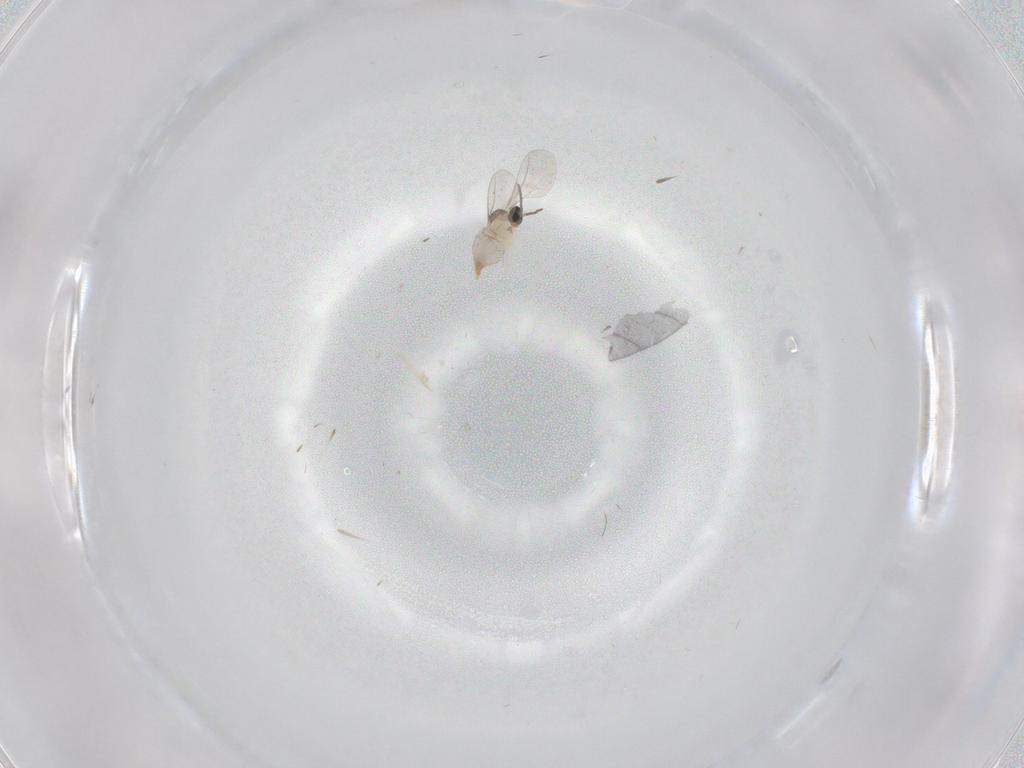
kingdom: Animalia
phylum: Arthropoda
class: Insecta
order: Diptera
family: Cecidomyiidae
